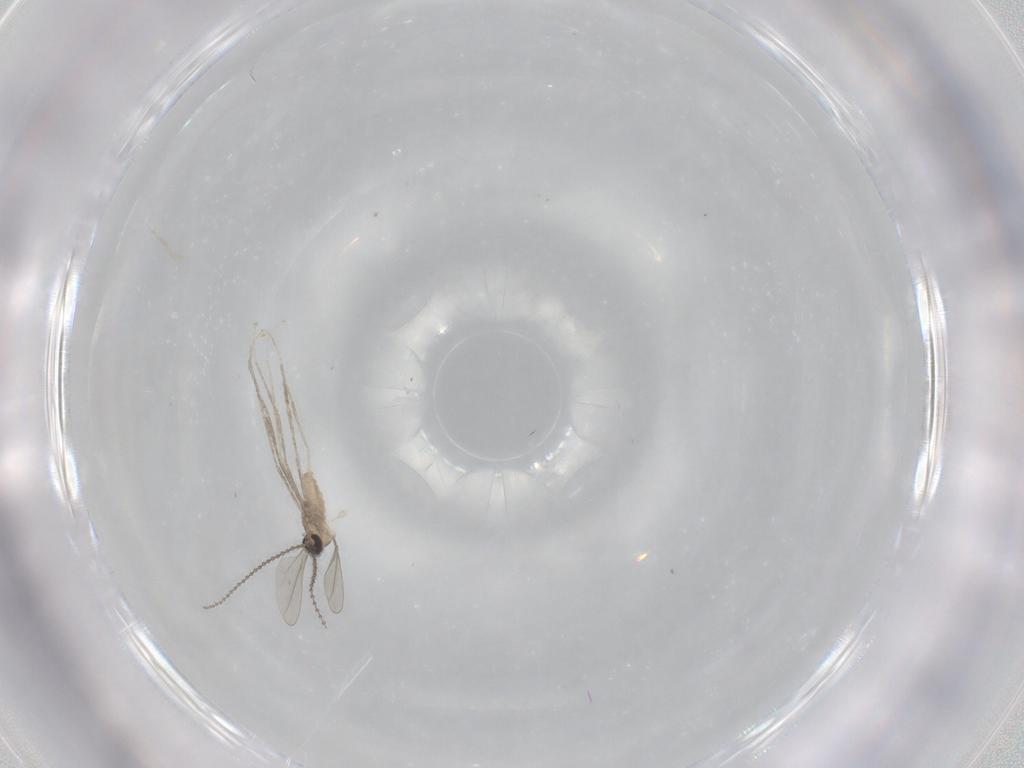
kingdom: Animalia
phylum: Arthropoda
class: Insecta
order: Diptera
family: Cecidomyiidae
